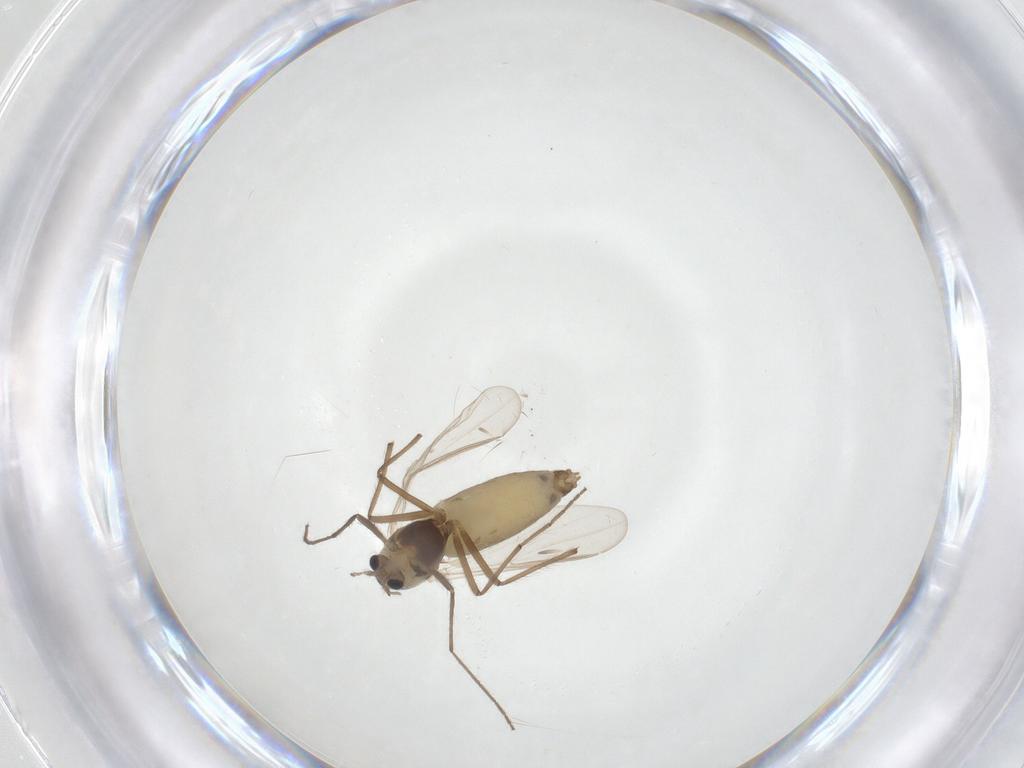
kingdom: Animalia
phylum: Arthropoda
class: Insecta
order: Diptera
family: Chironomidae
